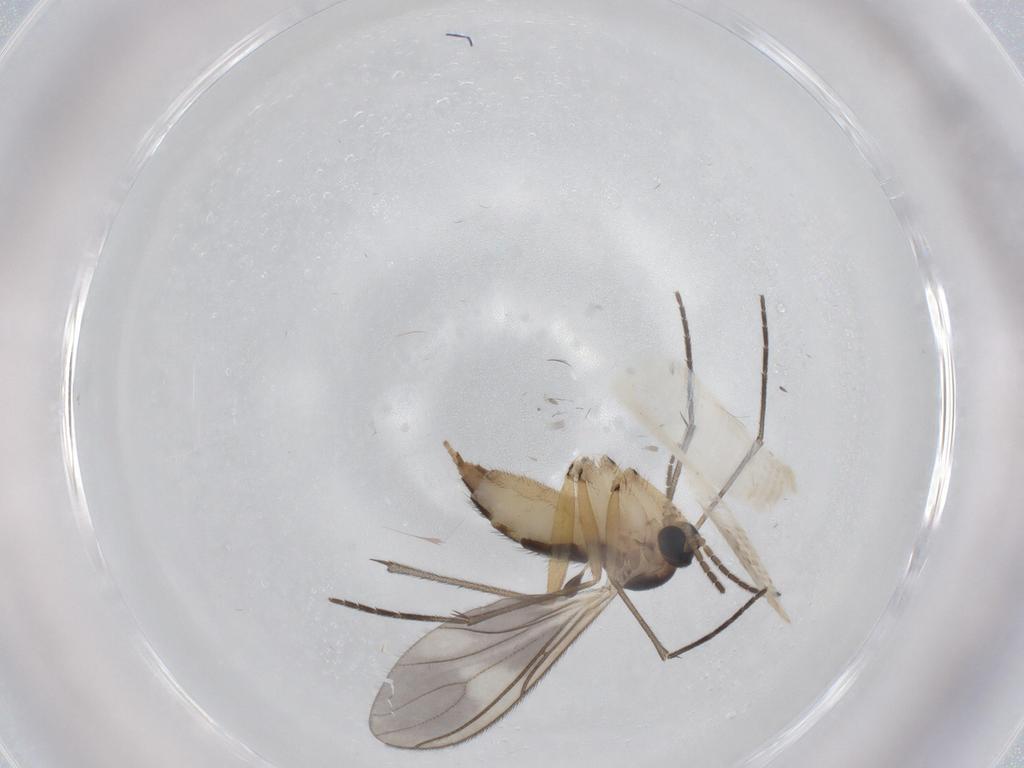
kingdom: Animalia
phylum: Arthropoda
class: Insecta
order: Diptera
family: Sciaridae
